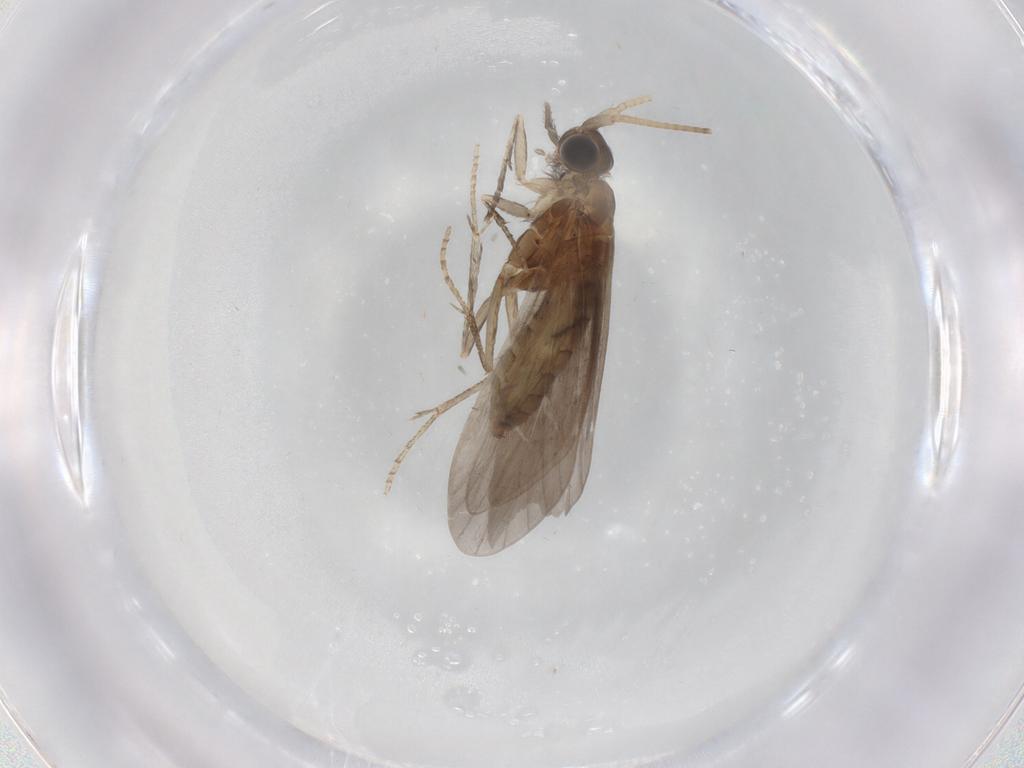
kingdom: Animalia
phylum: Arthropoda
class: Insecta
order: Trichoptera
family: Helicopsychidae
